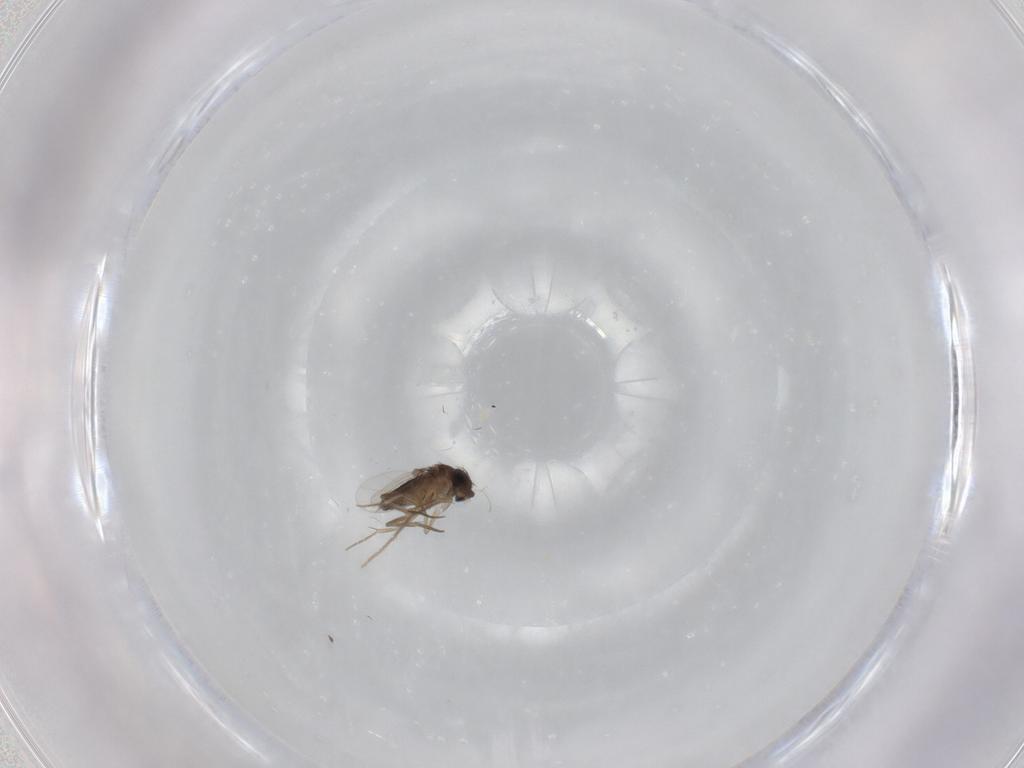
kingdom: Animalia
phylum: Arthropoda
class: Insecta
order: Diptera
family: Chironomidae
